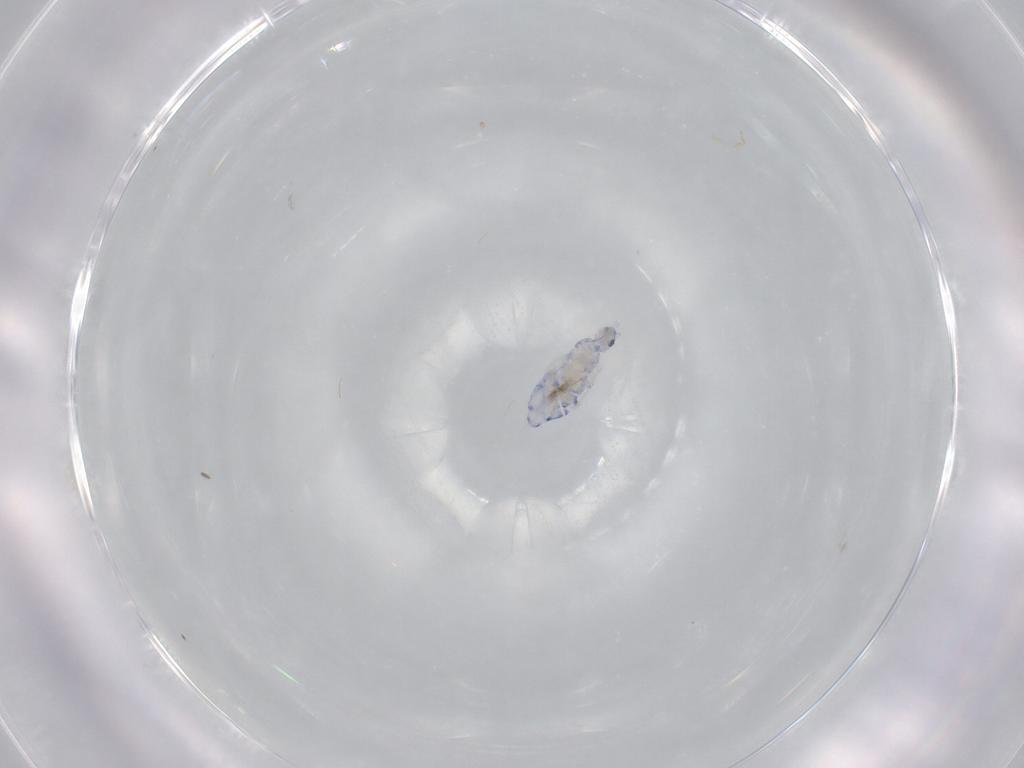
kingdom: Animalia
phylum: Arthropoda
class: Collembola
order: Entomobryomorpha
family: Entomobryidae
